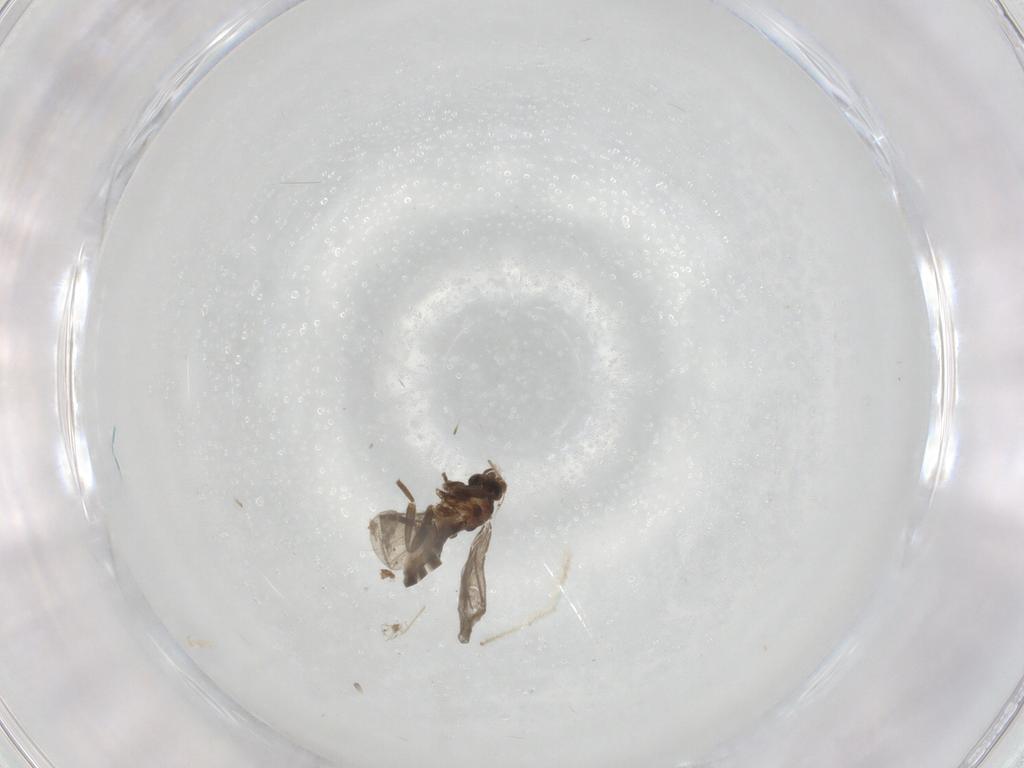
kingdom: Animalia
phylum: Arthropoda
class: Insecta
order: Diptera
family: Limoniidae
